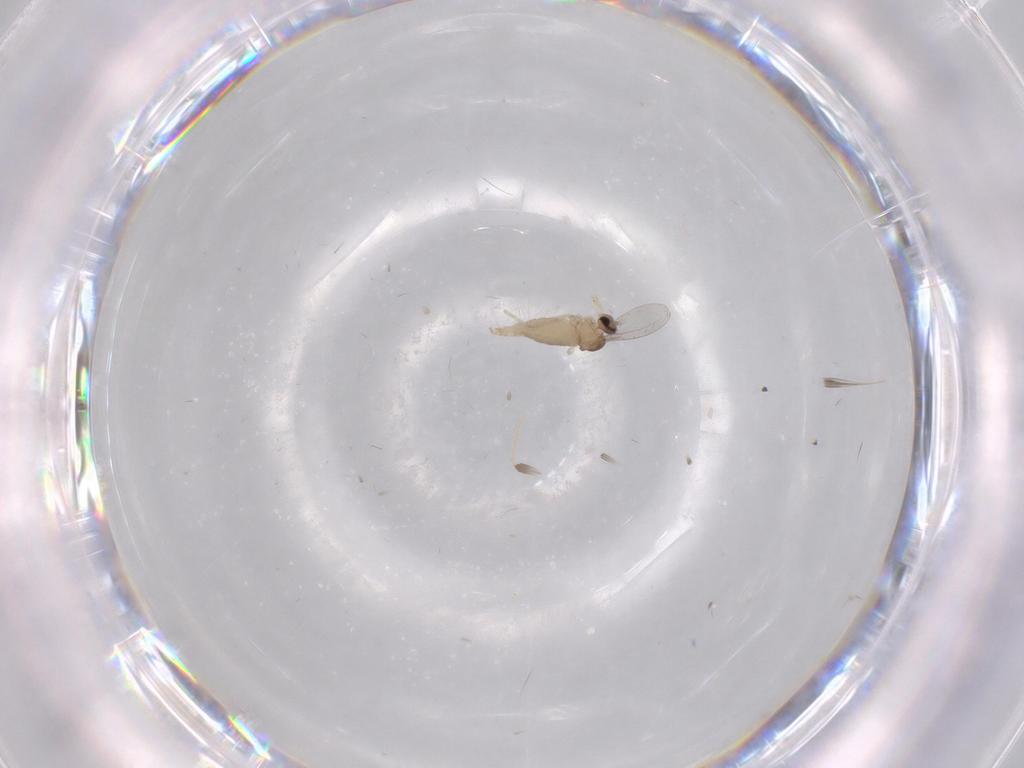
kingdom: Animalia
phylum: Arthropoda
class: Insecta
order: Diptera
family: Cecidomyiidae
